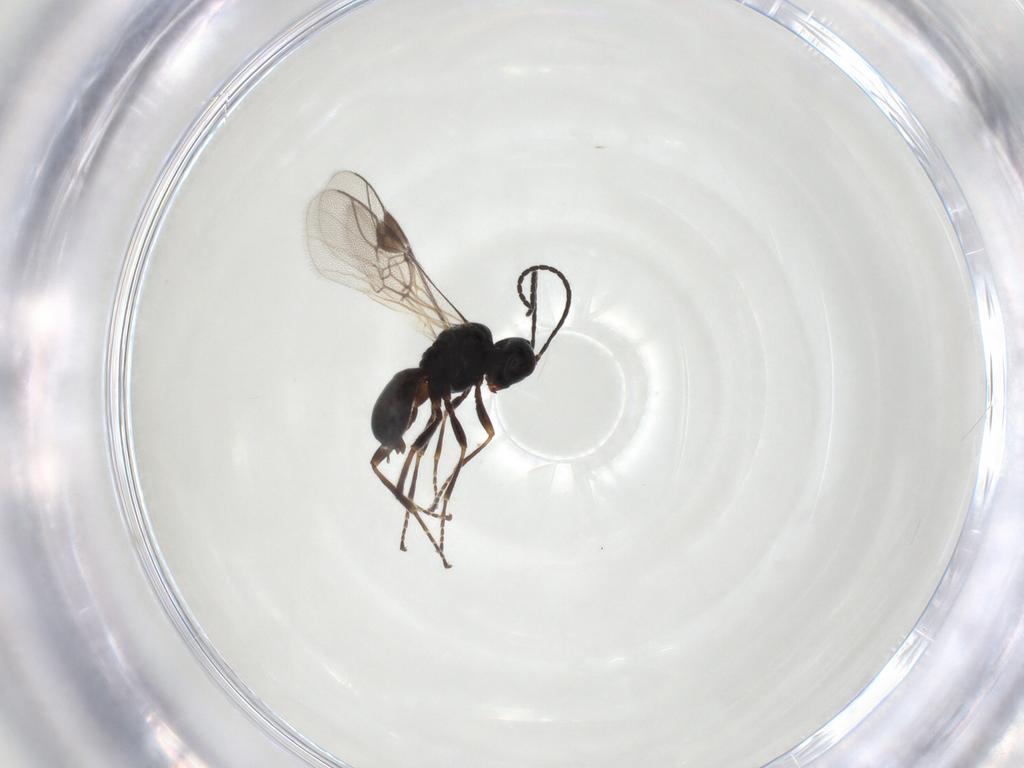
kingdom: Animalia
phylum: Arthropoda
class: Insecta
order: Hymenoptera
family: Braconidae
